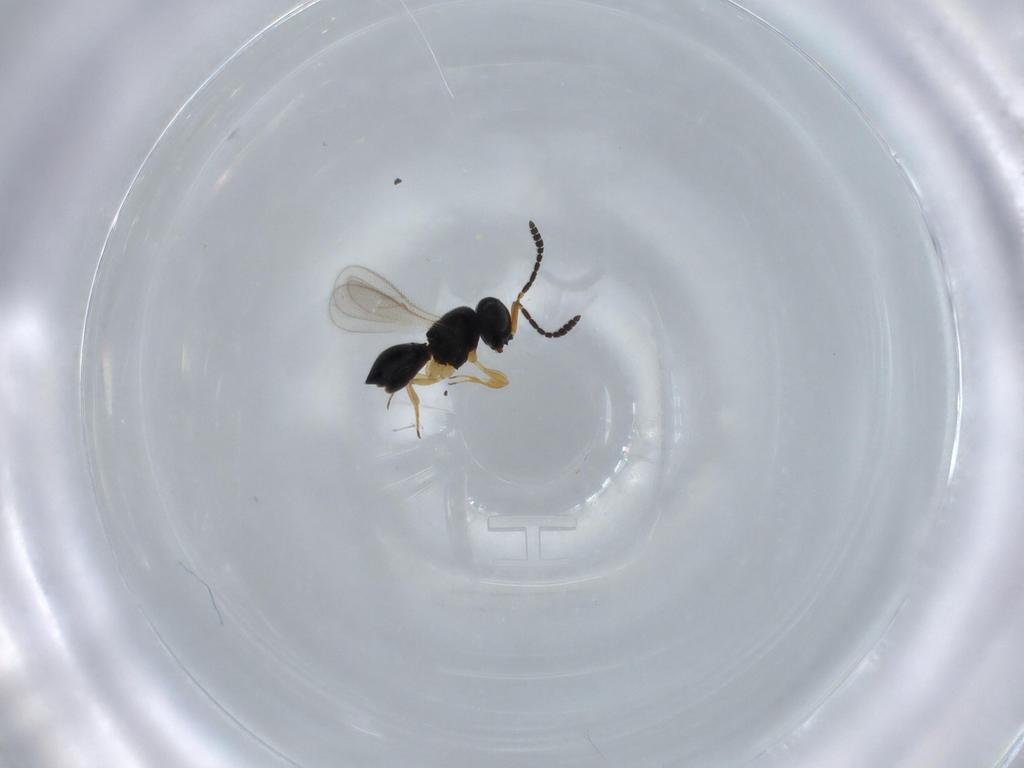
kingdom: Animalia
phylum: Arthropoda
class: Insecta
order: Hymenoptera
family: Scelionidae
